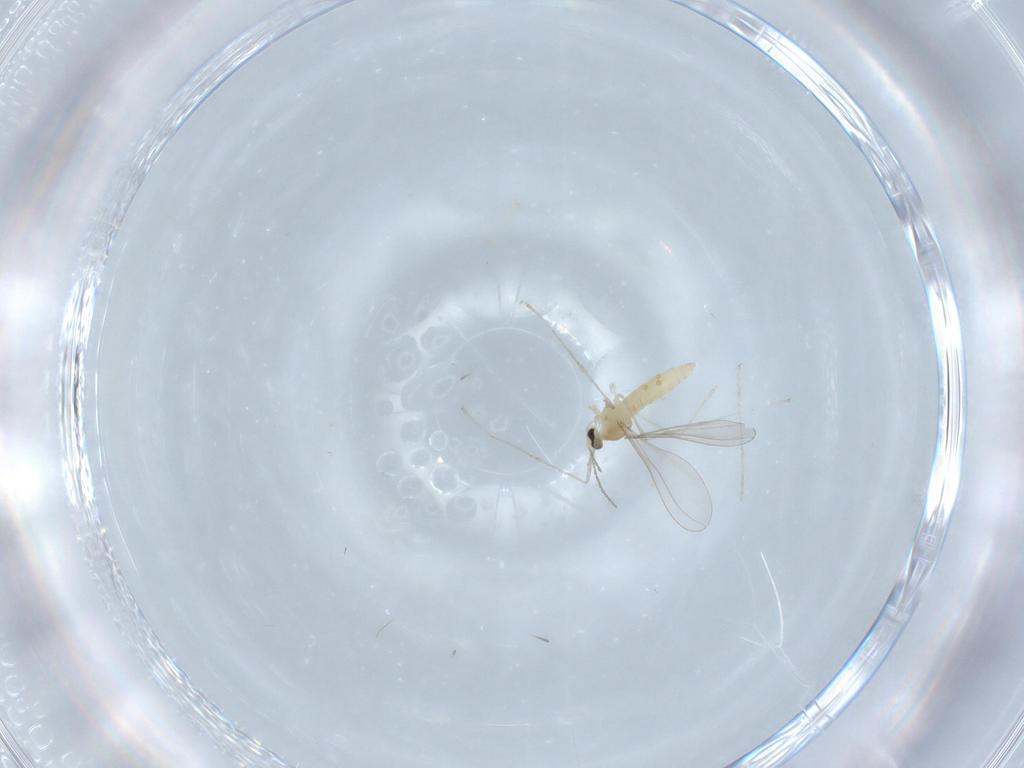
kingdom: Animalia
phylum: Arthropoda
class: Insecta
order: Diptera
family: Cecidomyiidae
